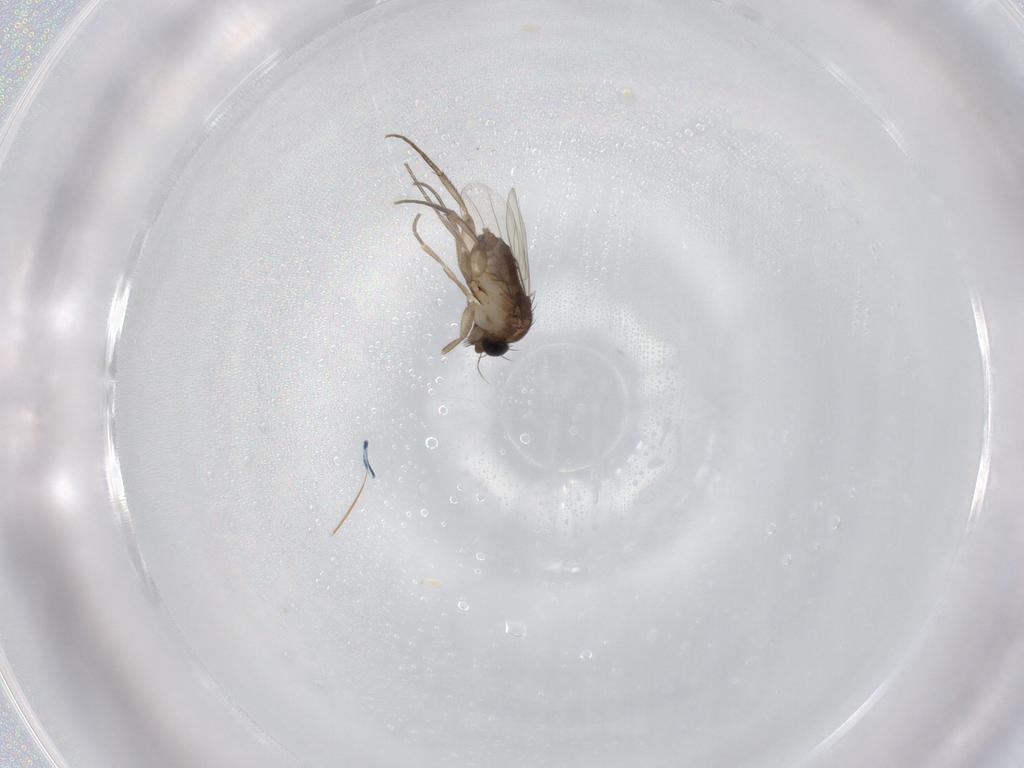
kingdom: Animalia
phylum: Arthropoda
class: Insecta
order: Diptera
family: Phoridae
